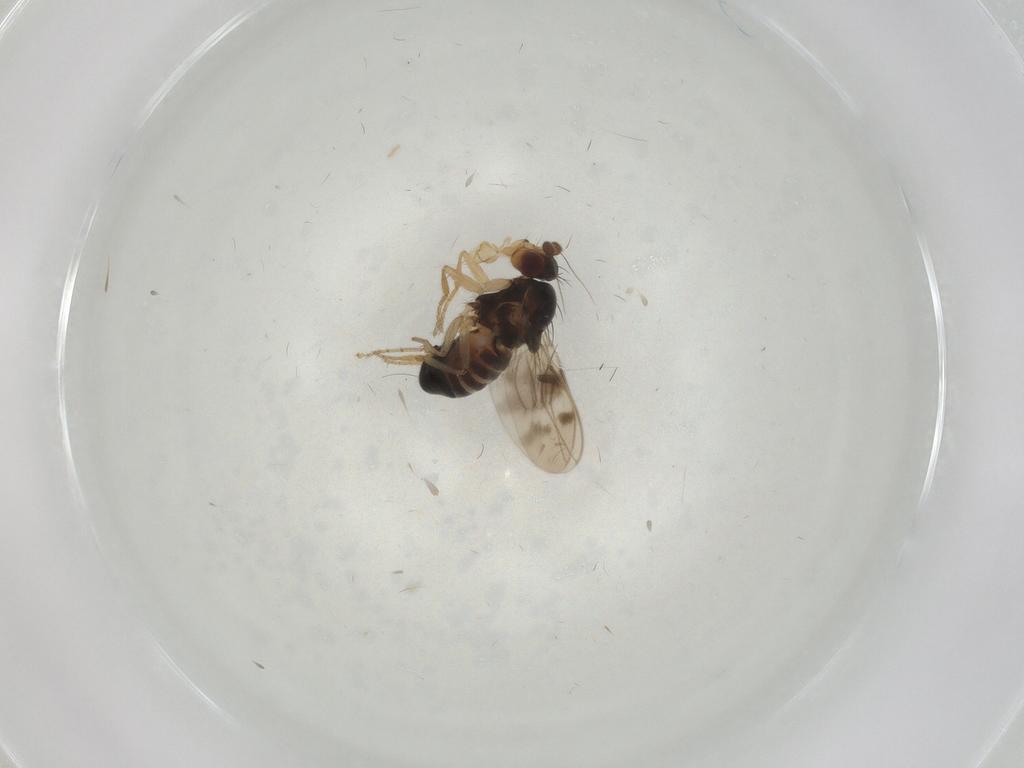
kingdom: Animalia
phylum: Arthropoda
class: Insecta
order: Diptera
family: Sphaeroceridae
